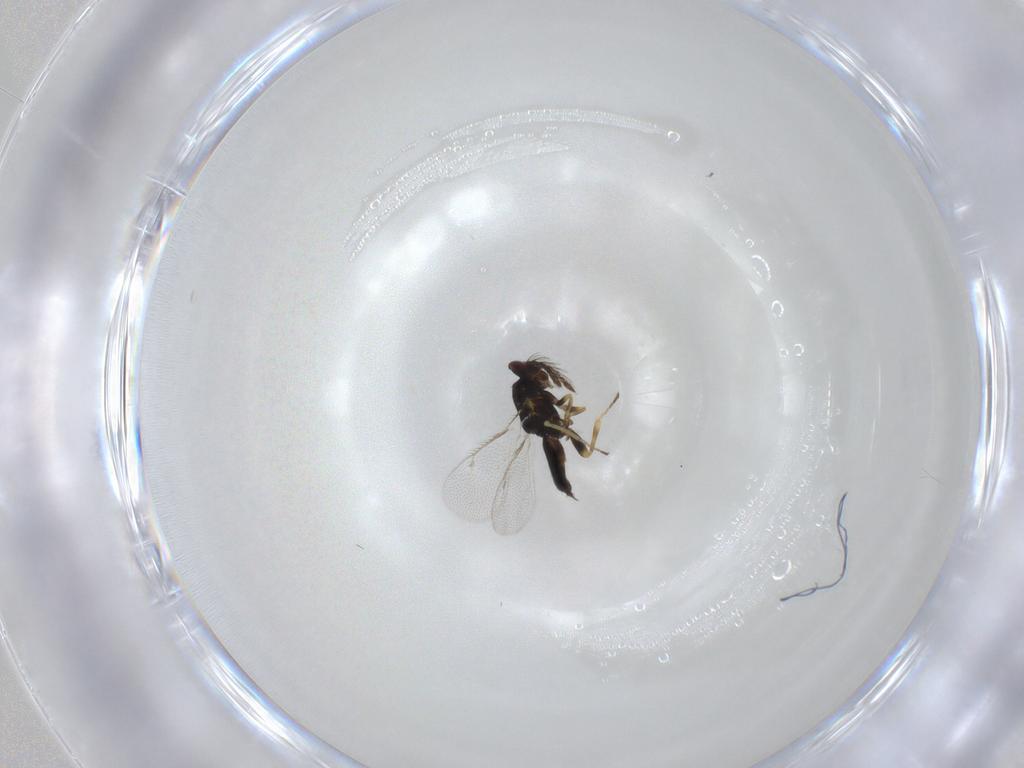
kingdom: Animalia
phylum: Arthropoda
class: Insecta
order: Hymenoptera
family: Eulophidae
